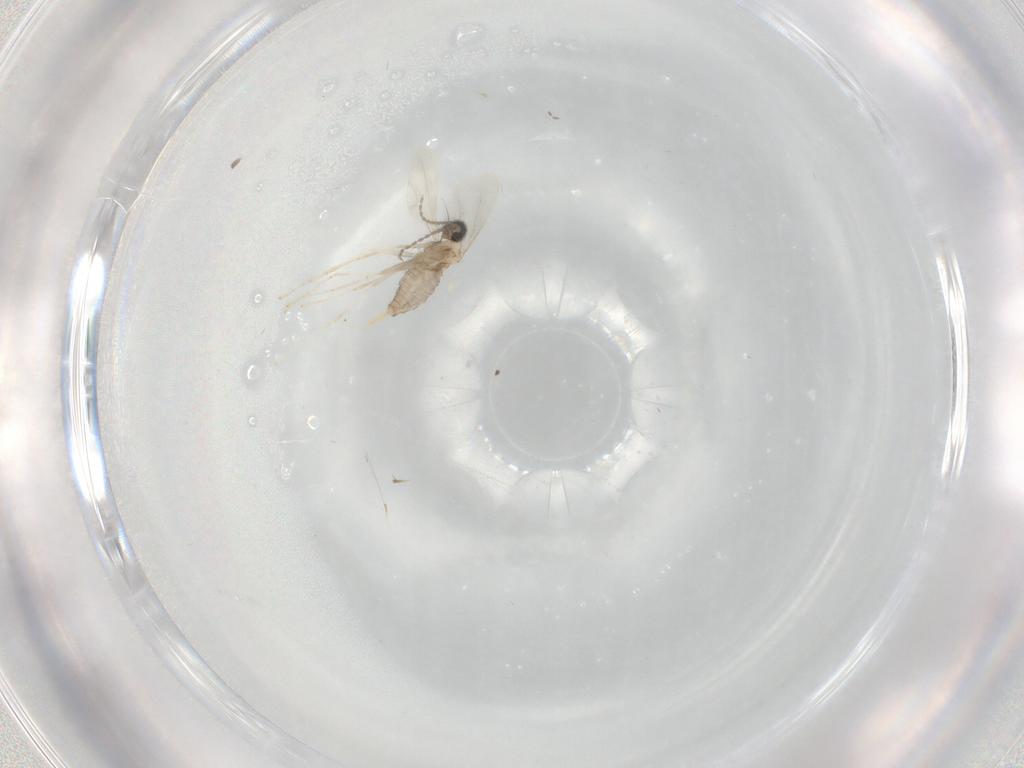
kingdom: Animalia
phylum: Arthropoda
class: Insecta
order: Diptera
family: Cecidomyiidae
